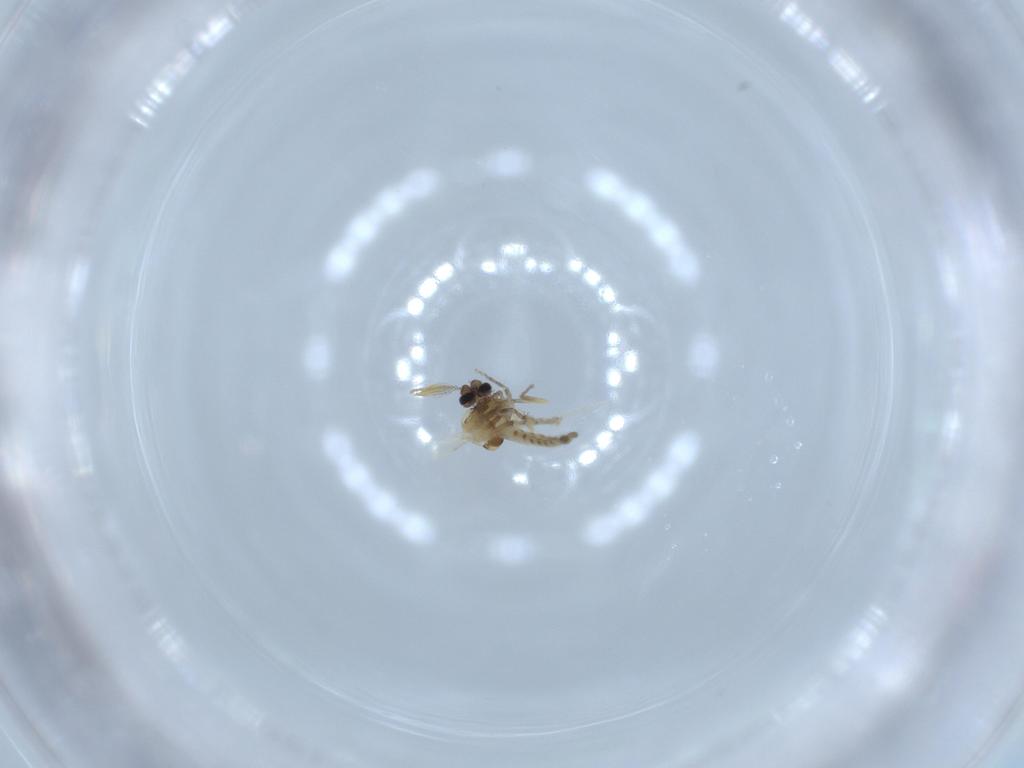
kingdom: Animalia
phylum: Arthropoda
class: Insecta
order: Diptera
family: Ceratopogonidae
